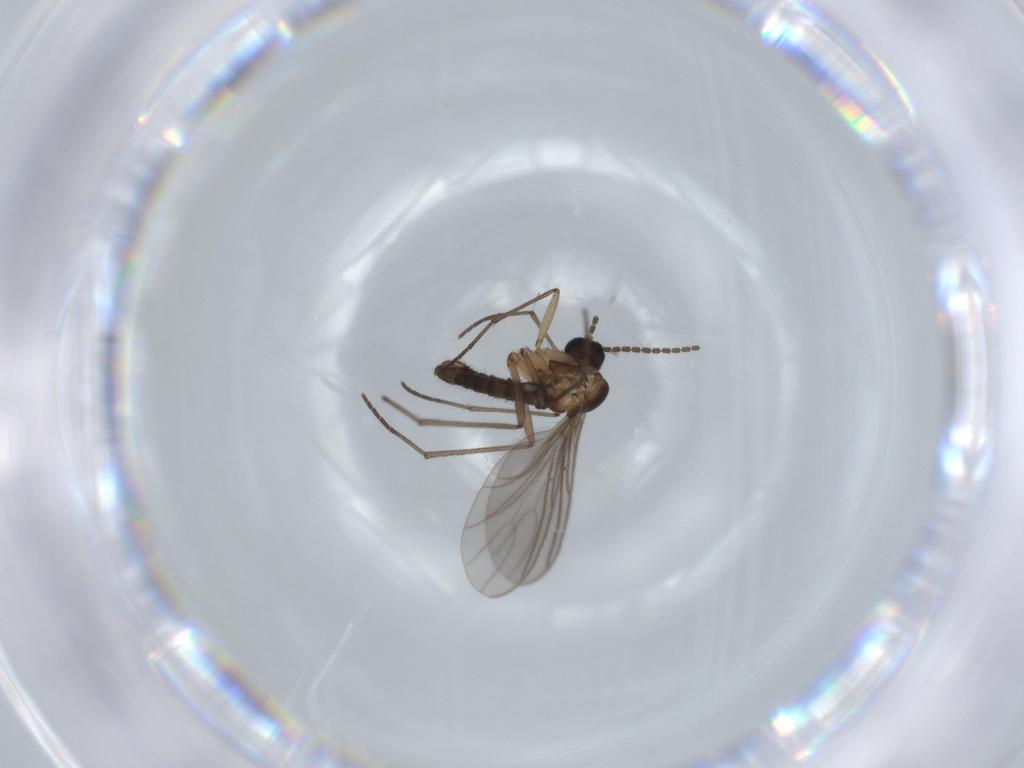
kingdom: Animalia
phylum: Arthropoda
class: Insecta
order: Diptera
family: Sciaridae
